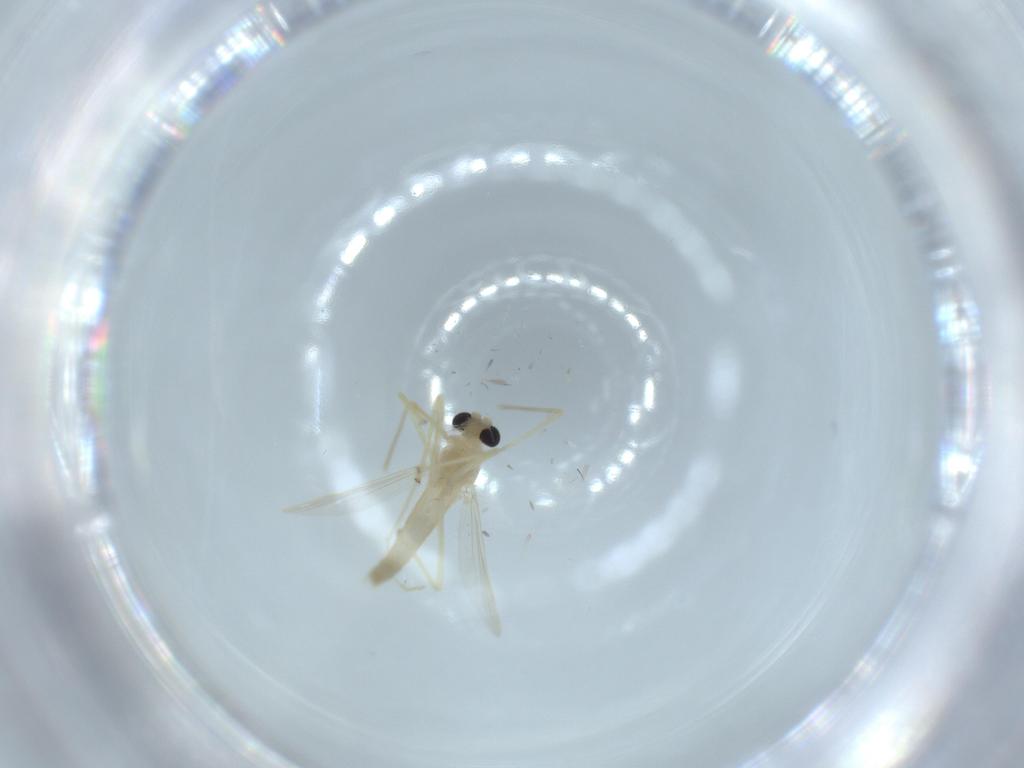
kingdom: Animalia
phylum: Arthropoda
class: Insecta
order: Diptera
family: Chironomidae
